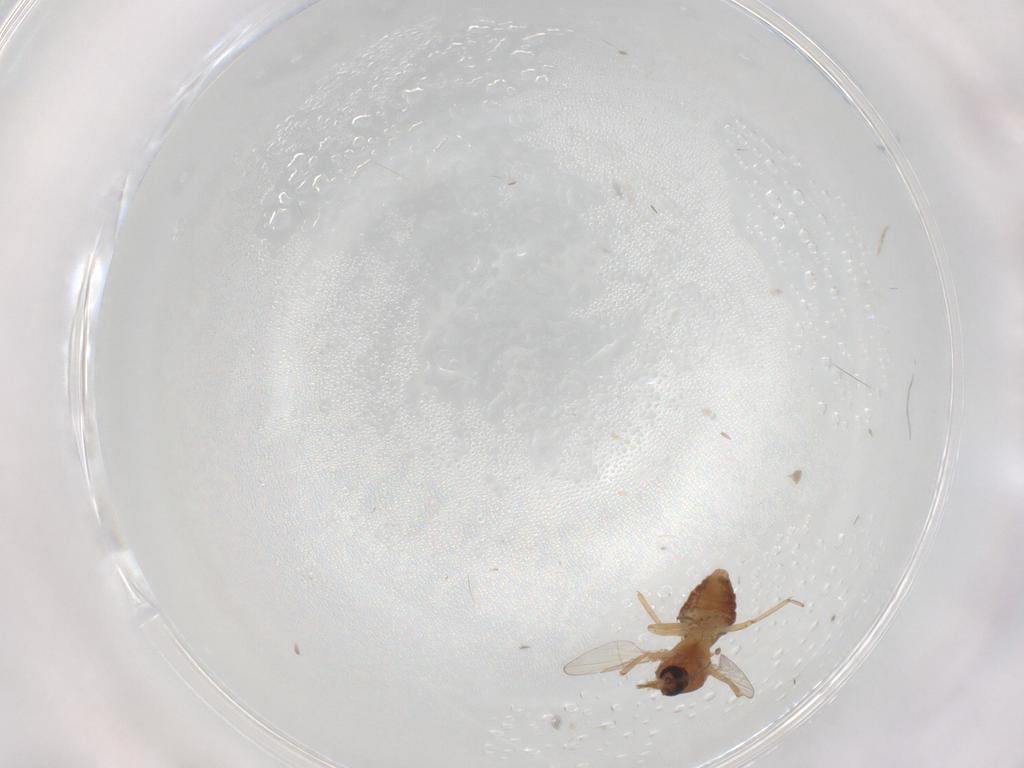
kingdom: Animalia
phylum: Arthropoda
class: Insecta
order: Diptera
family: Ceratopogonidae
